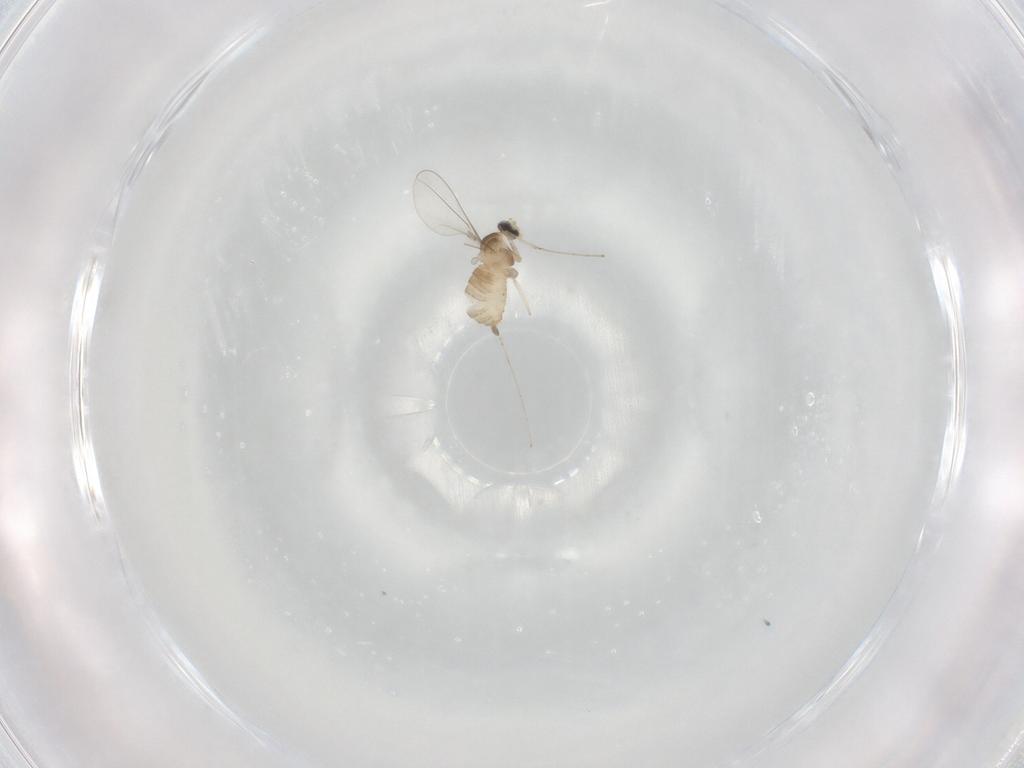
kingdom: Animalia
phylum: Arthropoda
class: Insecta
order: Diptera
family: Cecidomyiidae
